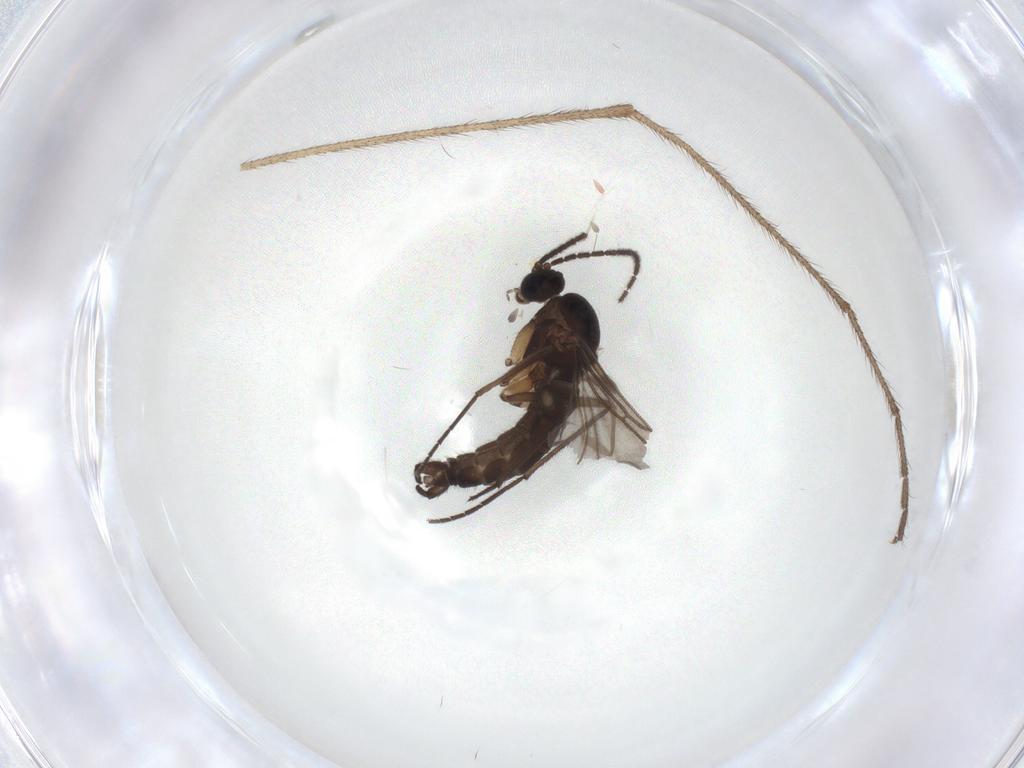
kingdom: Animalia
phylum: Arthropoda
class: Insecta
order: Diptera
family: Sciaridae
